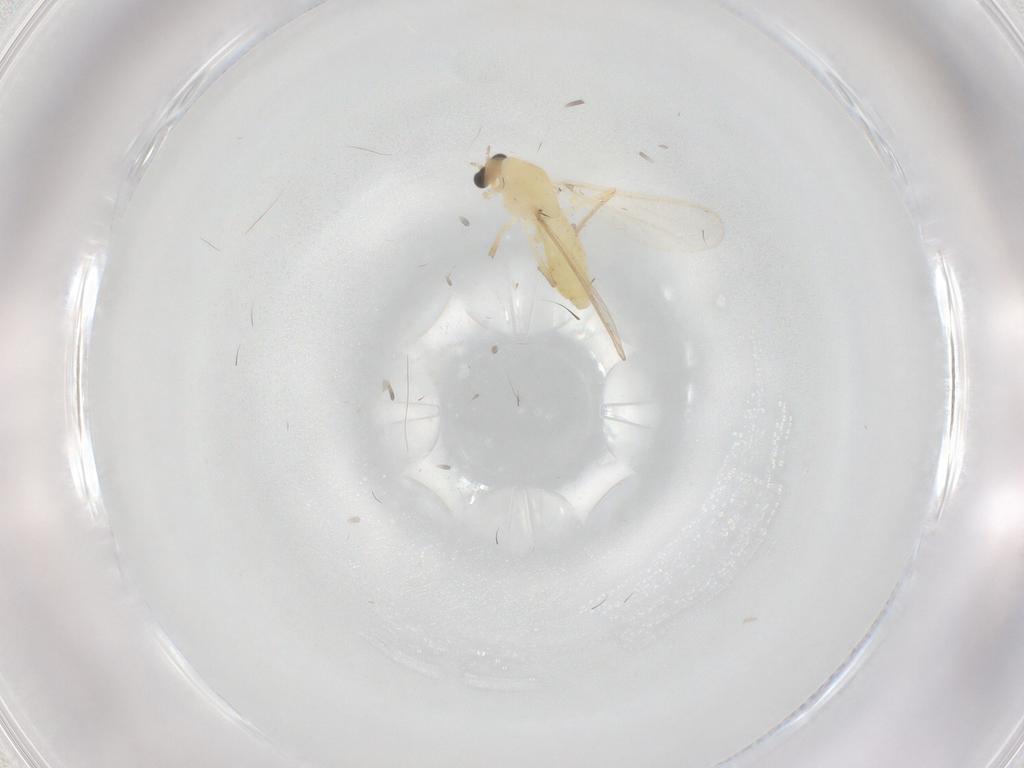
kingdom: Animalia
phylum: Arthropoda
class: Insecta
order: Diptera
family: Chironomidae
